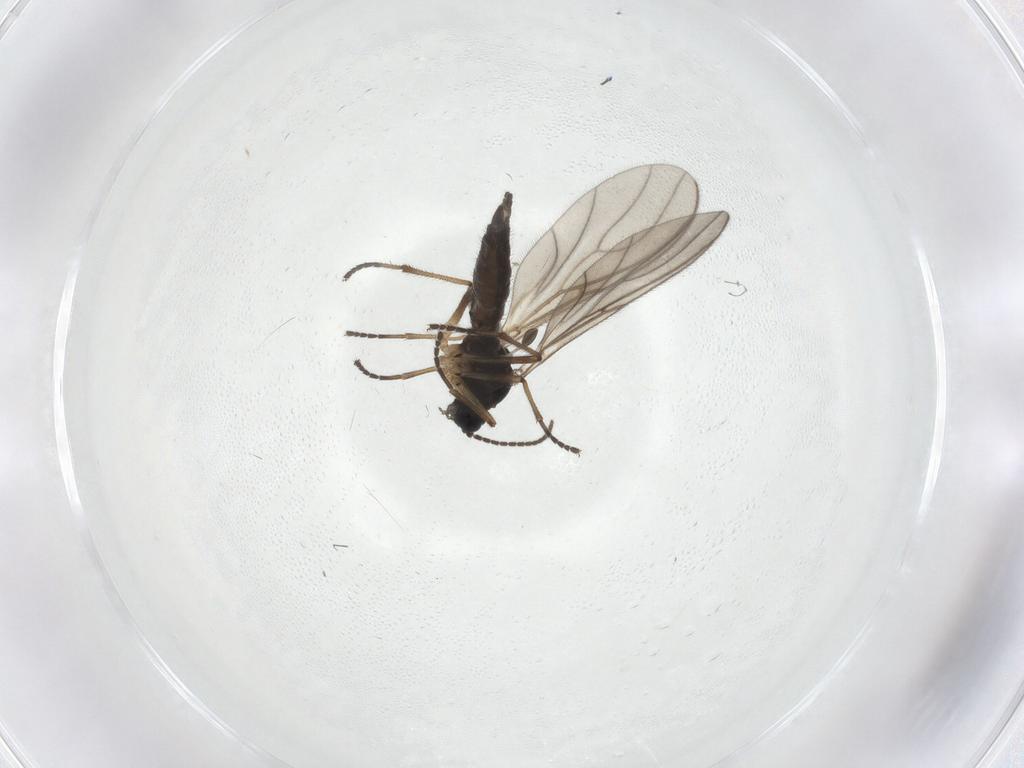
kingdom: Animalia
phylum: Arthropoda
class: Insecta
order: Diptera
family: Sciaridae
